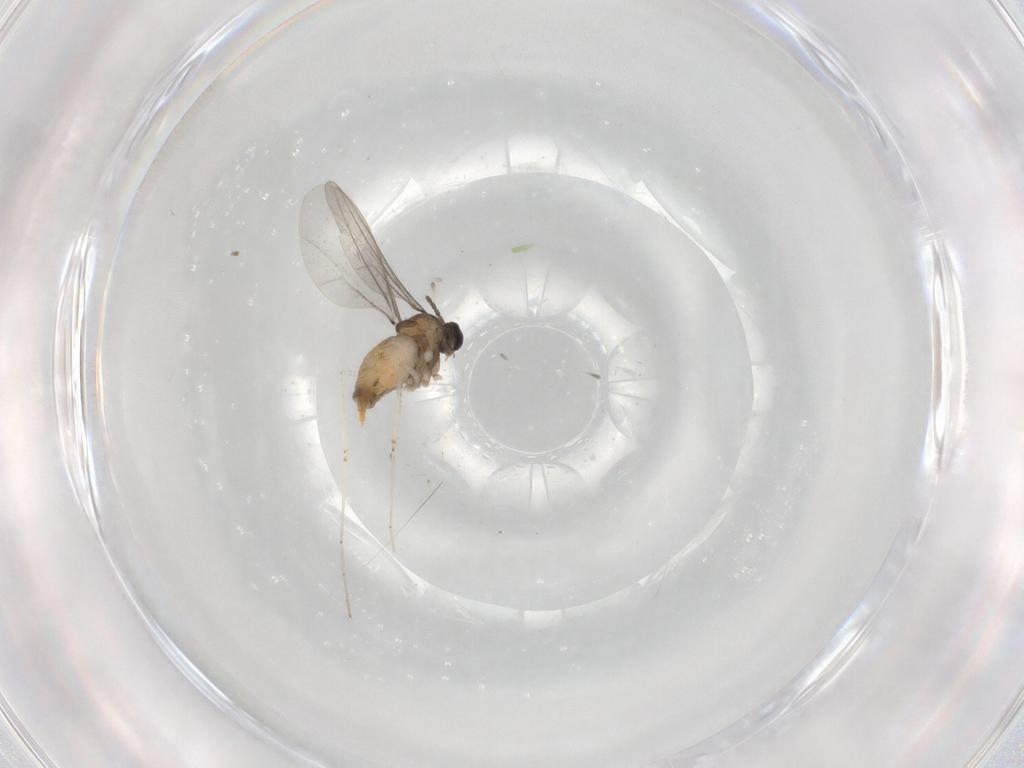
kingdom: Animalia
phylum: Arthropoda
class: Insecta
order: Diptera
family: Cecidomyiidae
